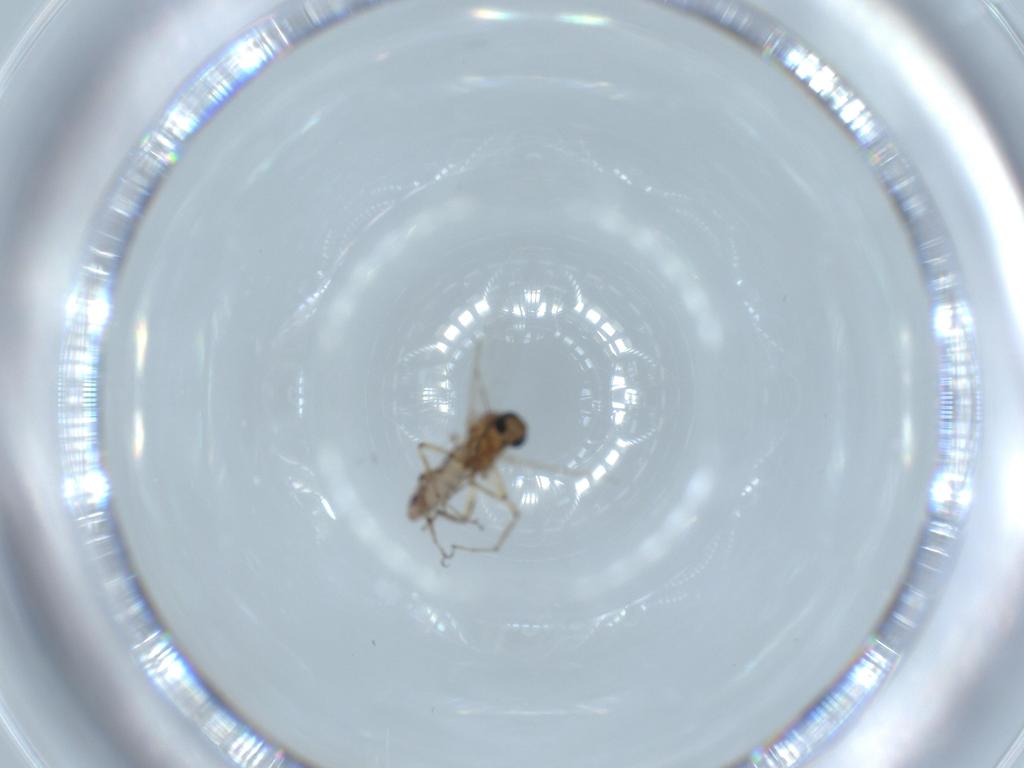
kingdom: Animalia
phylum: Arthropoda
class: Insecta
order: Diptera
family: Ceratopogonidae
